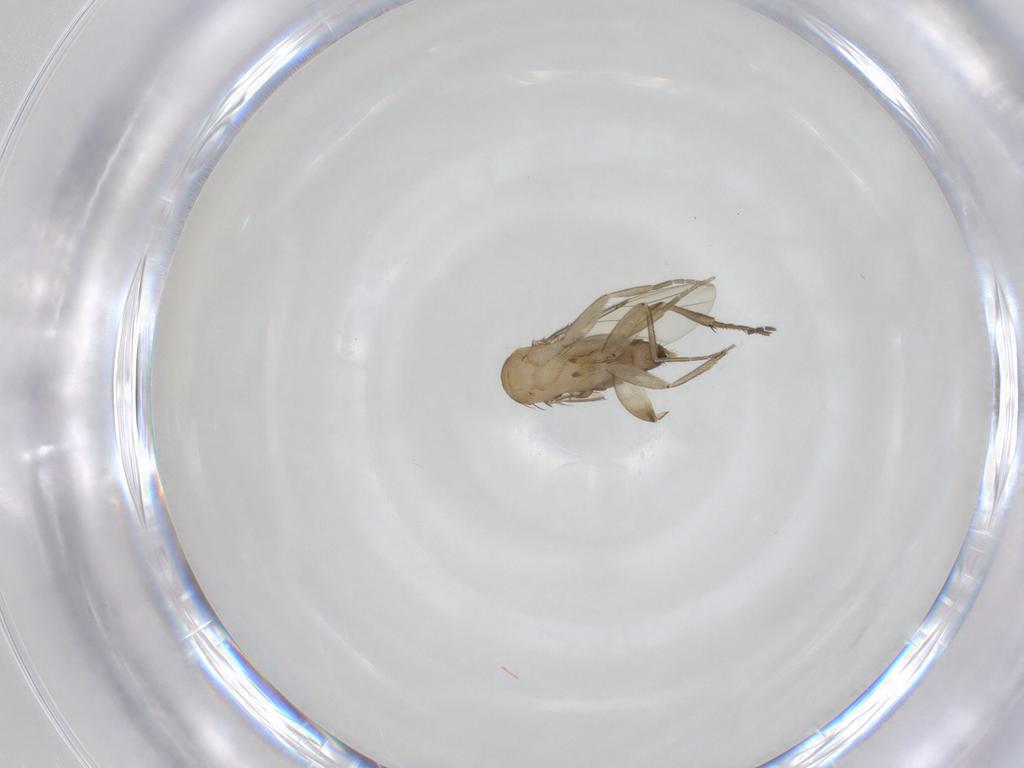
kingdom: Animalia
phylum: Arthropoda
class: Insecta
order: Diptera
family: Phoridae
